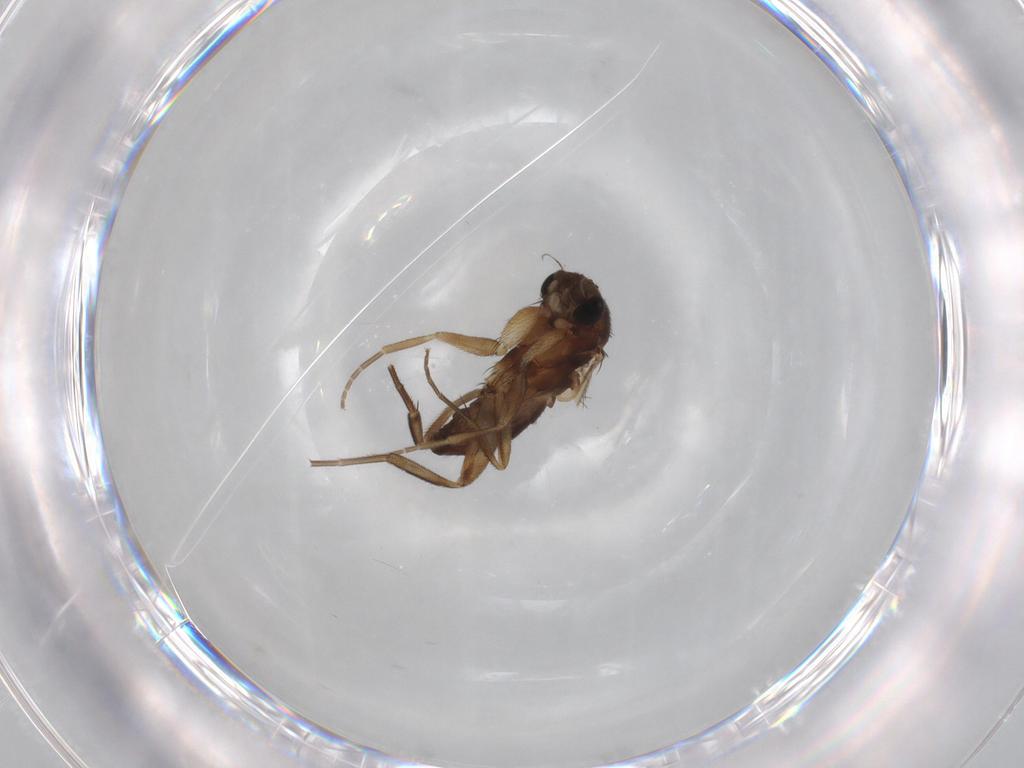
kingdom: Animalia
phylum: Arthropoda
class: Insecta
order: Diptera
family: Phoridae
